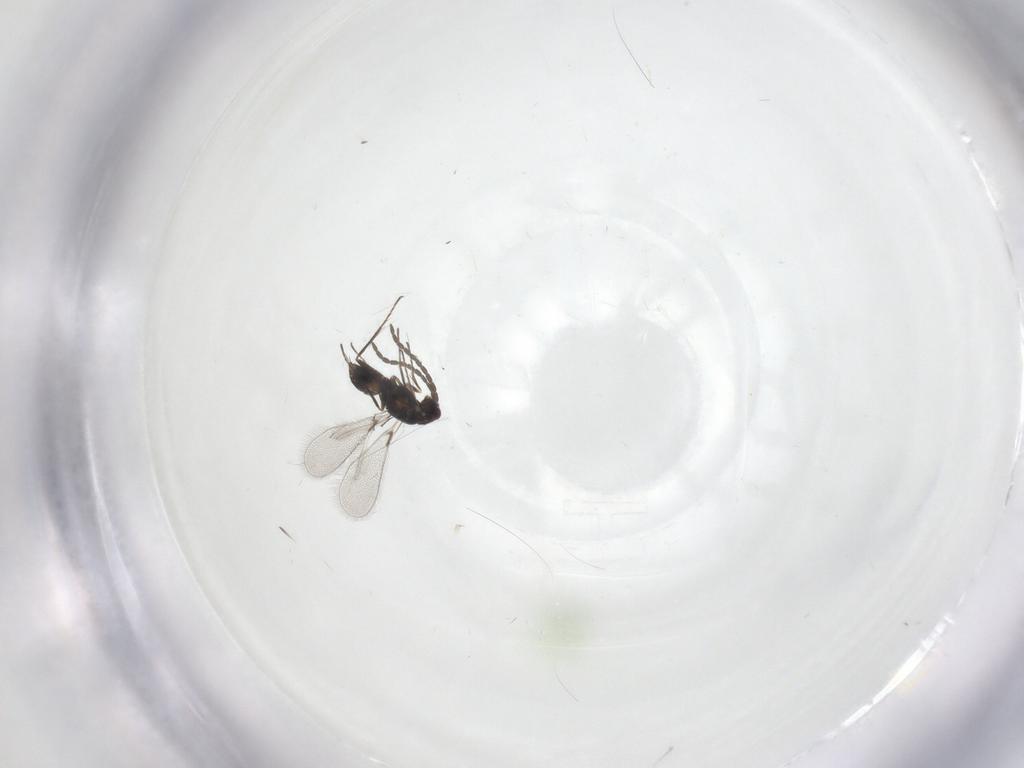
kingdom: Animalia
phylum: Arthropoda
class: Insecta
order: Hymenoptera
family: Mymaridae
